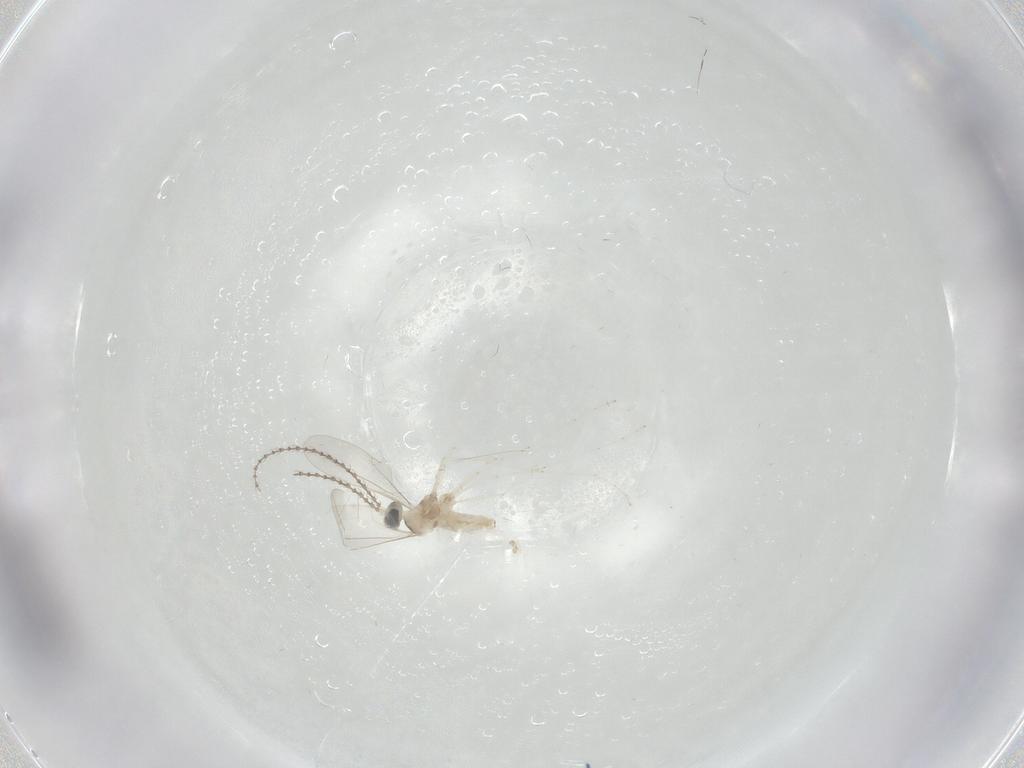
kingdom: Animalia
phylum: Arthropoda
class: Insecta
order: Diptera
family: Cecidomyiidae
